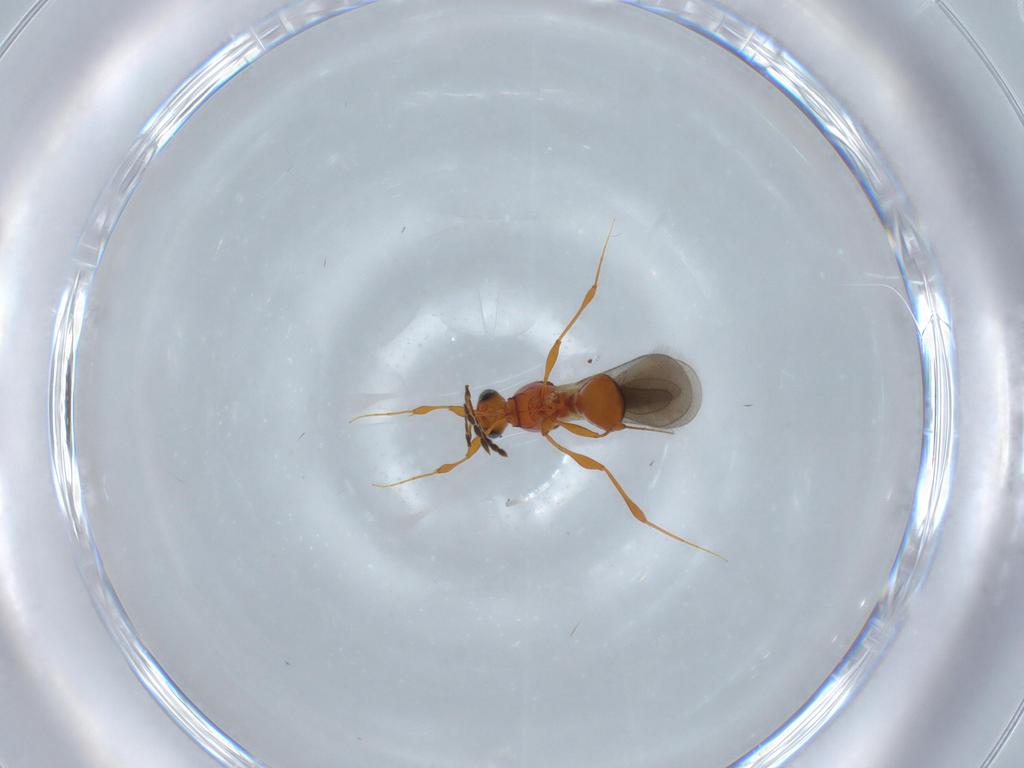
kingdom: Animalia
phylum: Arthropoda
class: Insecta
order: Hymenoptera
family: Platygastridae
